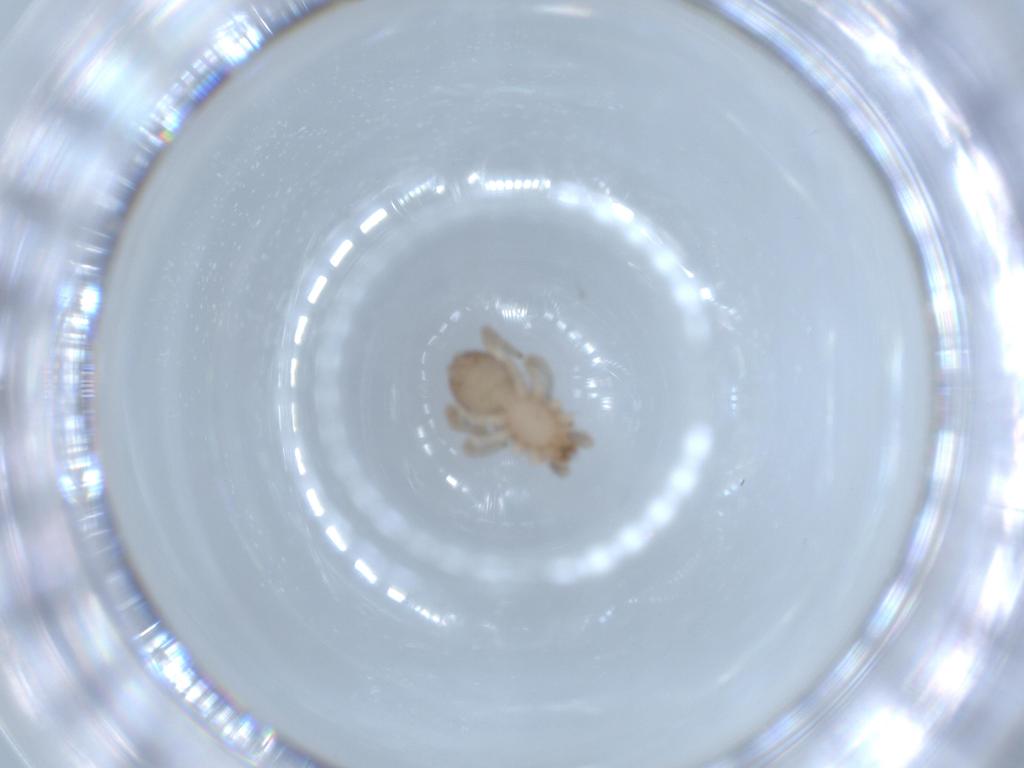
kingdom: Animalia
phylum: Arthropoda
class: Arachnida
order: Araneae
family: Gnaphosidae
